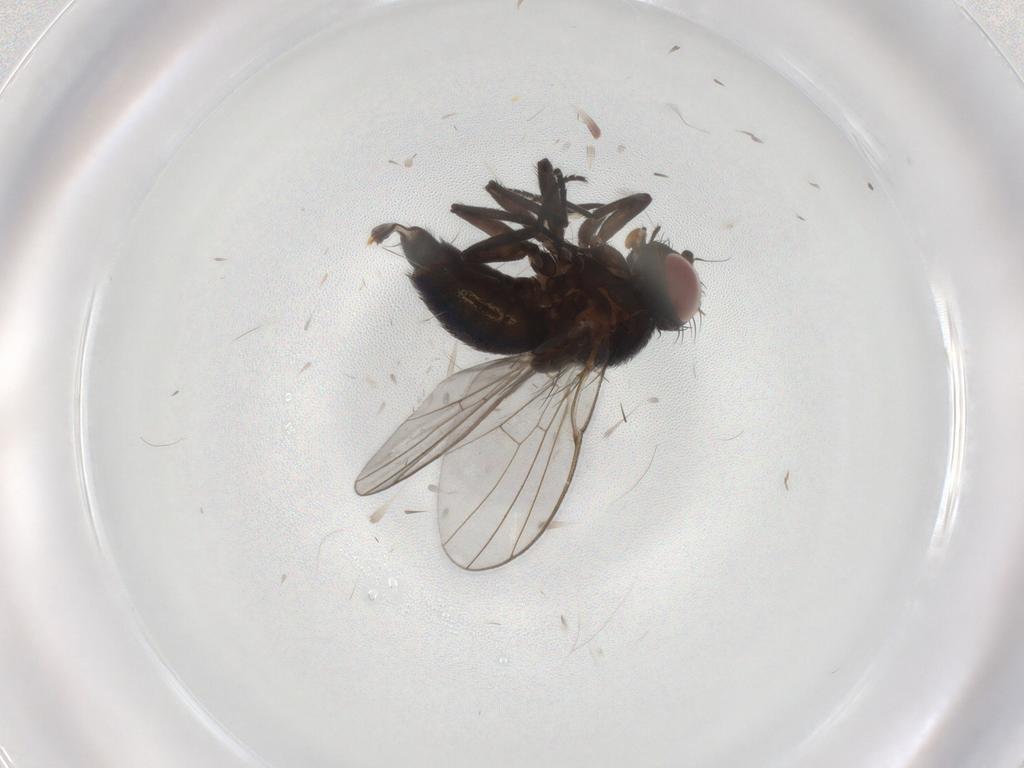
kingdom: Animalia
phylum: Arthropoda
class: Insecta
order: Diptera
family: Agromyzidae
